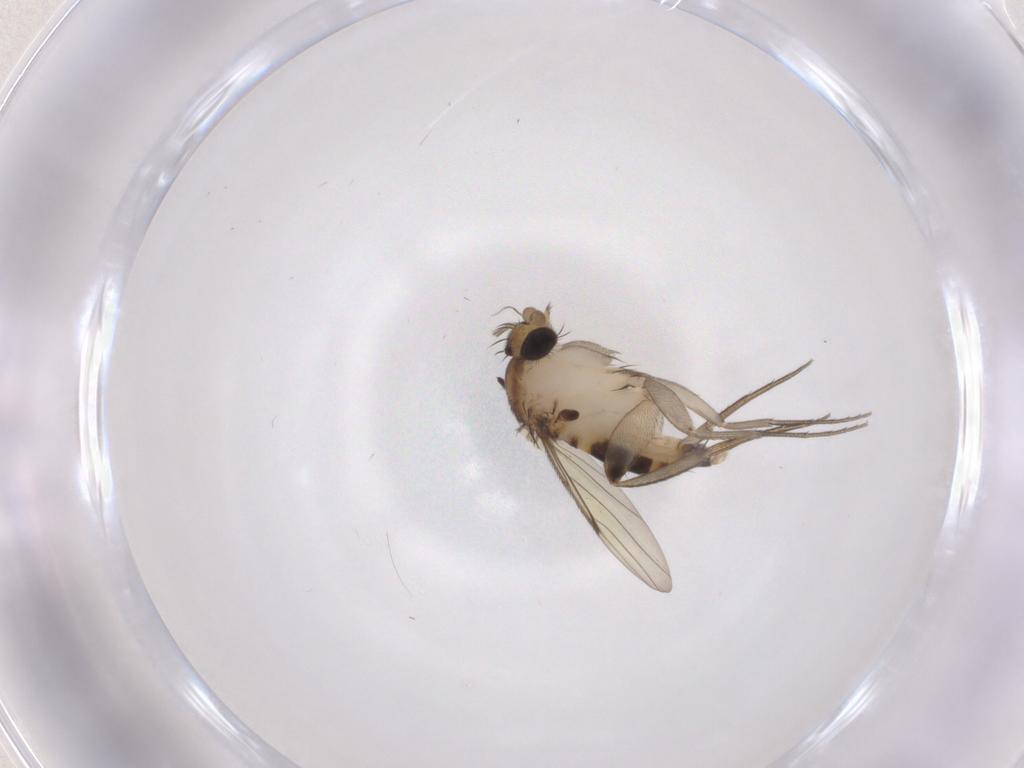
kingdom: Animalia
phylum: Arthropoda
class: Insecta
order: Diptera
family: Phoridae
